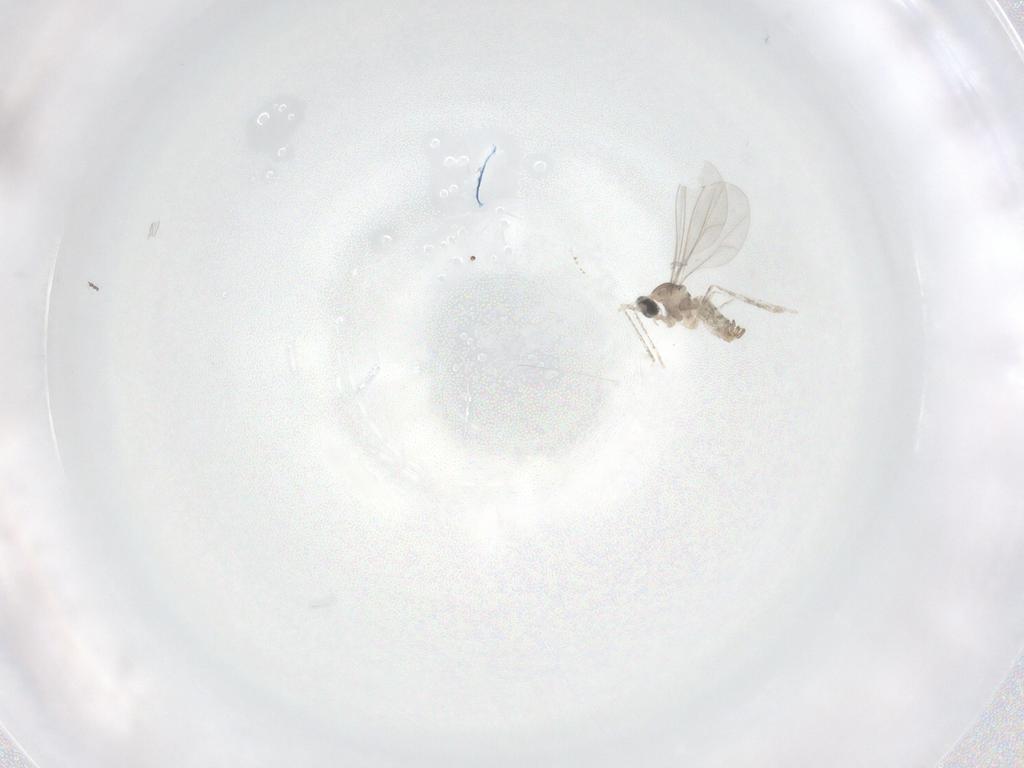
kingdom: Animalia
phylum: Arthropoda
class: Insecta
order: Diptera
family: Cecidomyiidae
